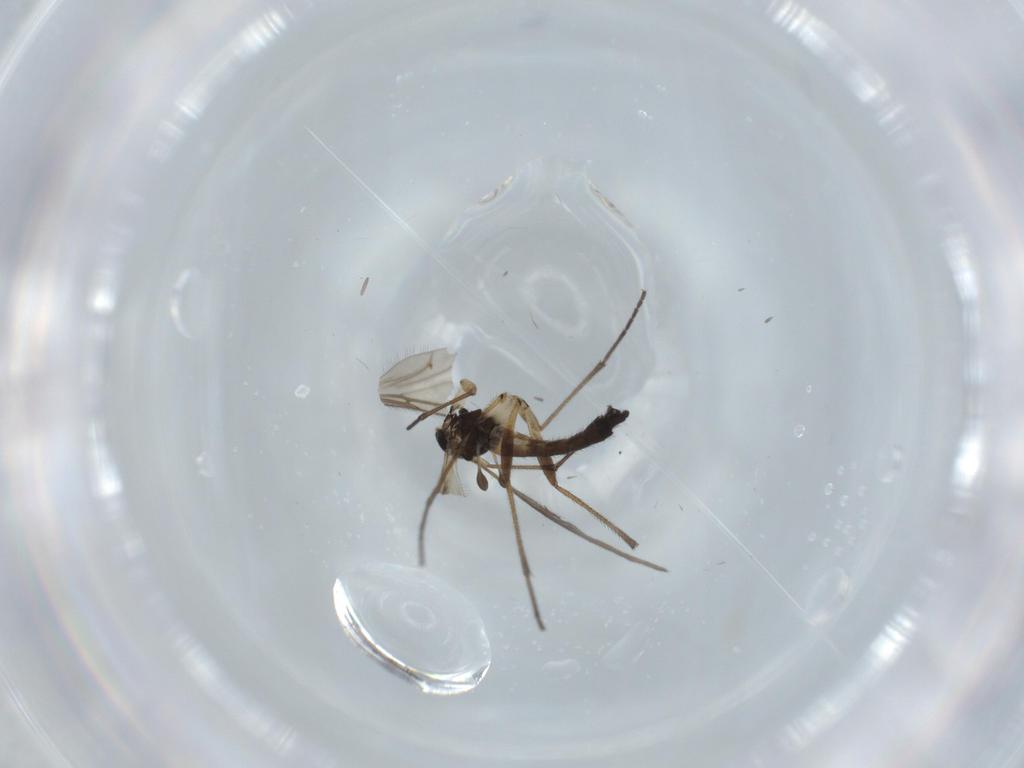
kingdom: Animalia
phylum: Arthropoda
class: Insecta
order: Diptera
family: Sciaridae
